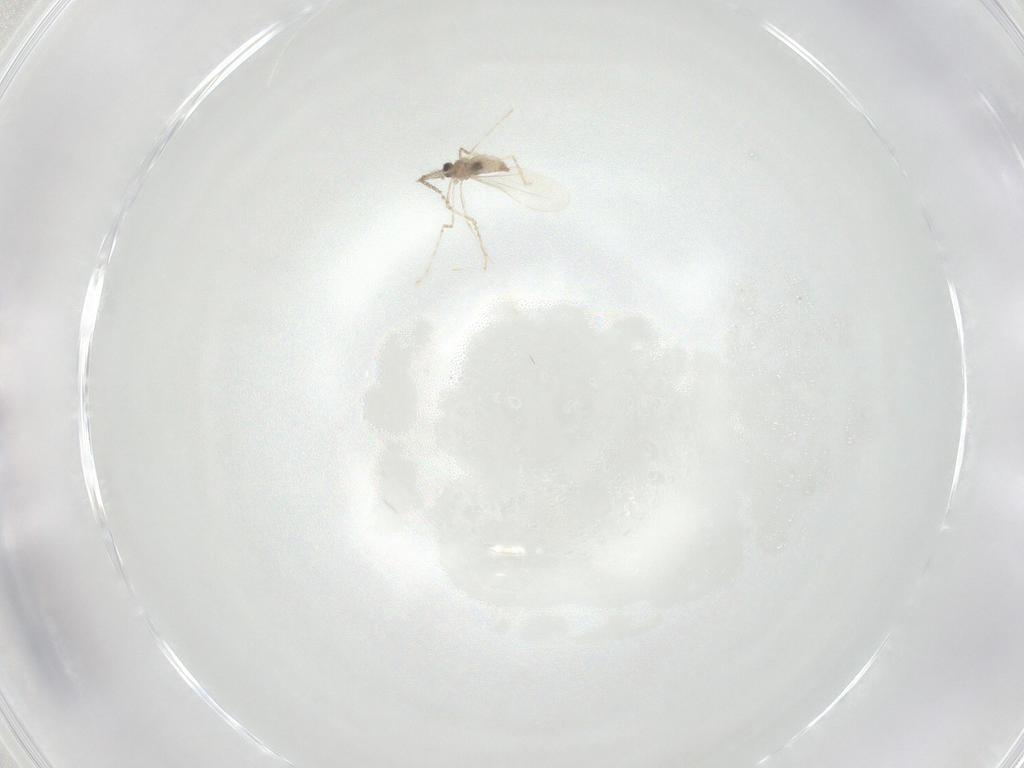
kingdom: Animalia
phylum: Arthropoda
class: Insecta
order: Diptera
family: Cecidomyiidae
